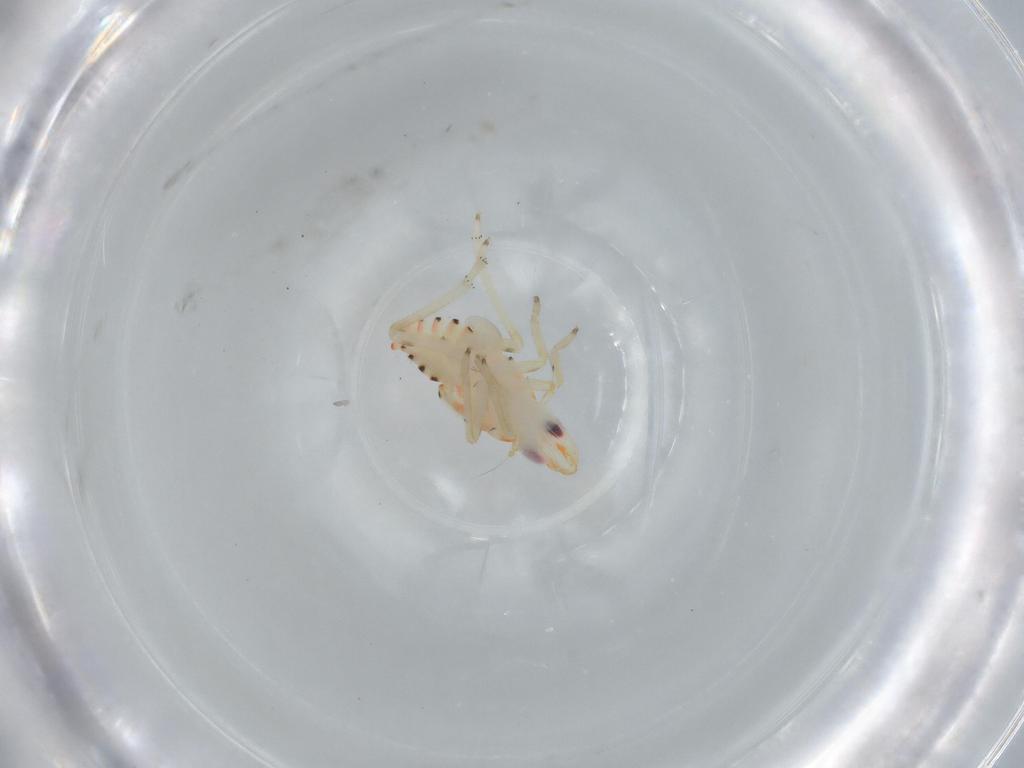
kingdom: Animalia
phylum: Arthropoda
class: Insecta
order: Hemiptera
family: Tropiduchidae
